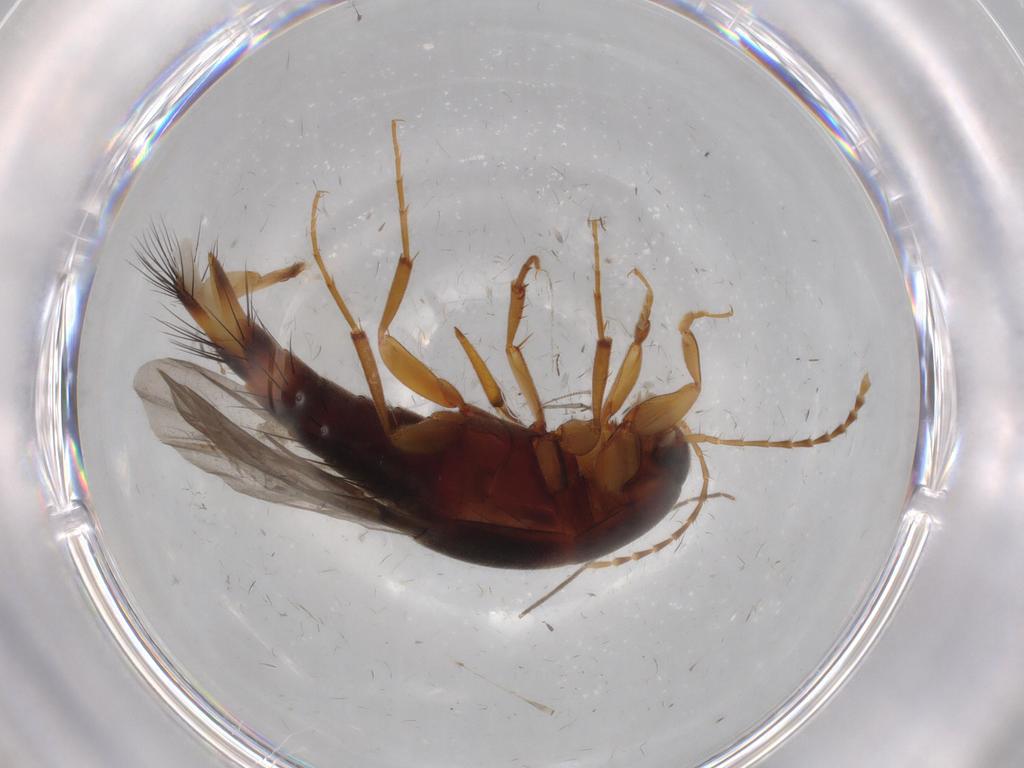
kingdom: Animalia
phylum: Arthropoda
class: Insecta
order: Coleoptera
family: Staphylinidae
